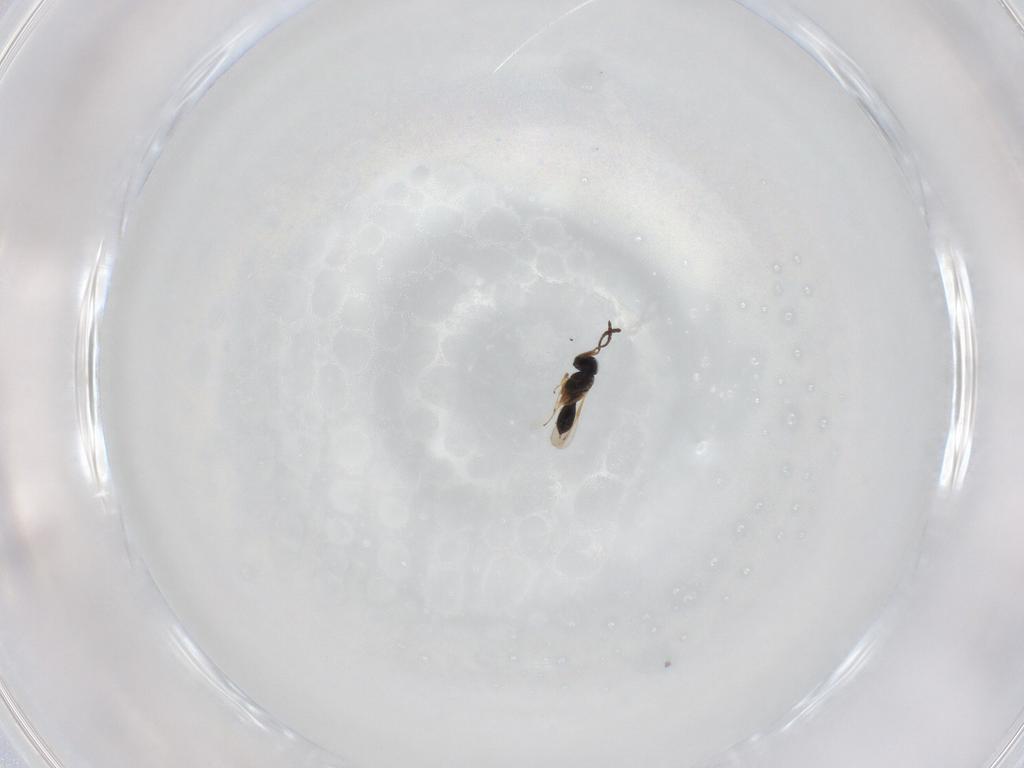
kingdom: Animalia
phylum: Arthropoda
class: Insecta
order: Hymenoptera
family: Scelionidae
